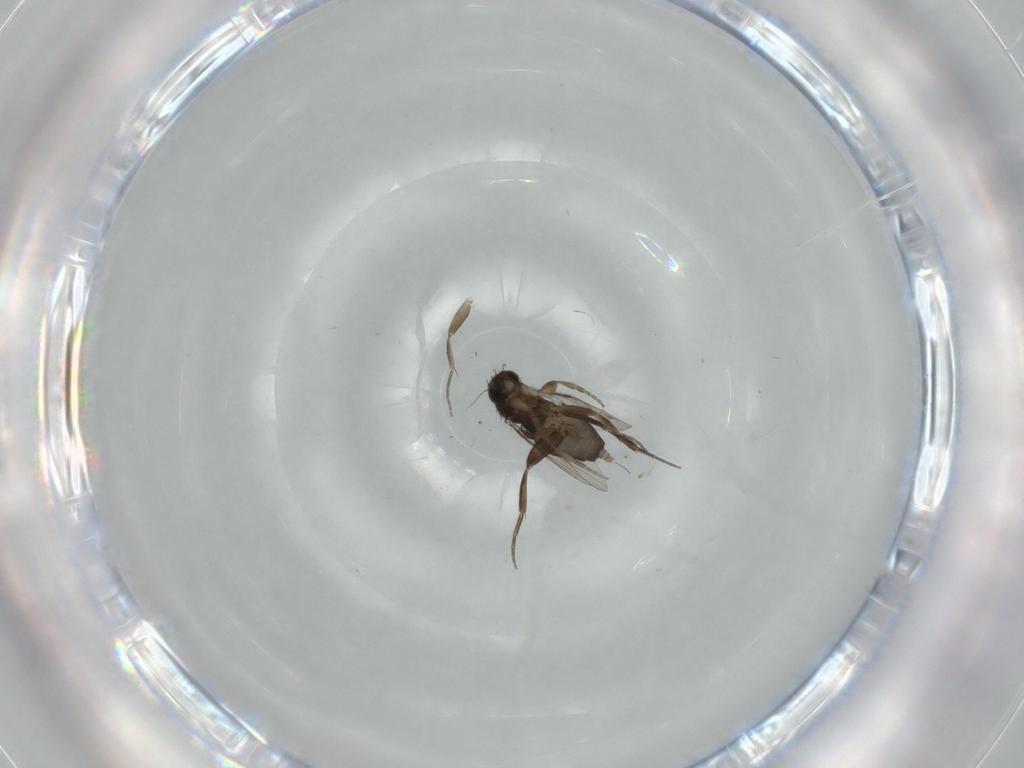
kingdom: Animalia
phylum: Arthropoda
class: Insecta
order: Diptera
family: Phoridae
